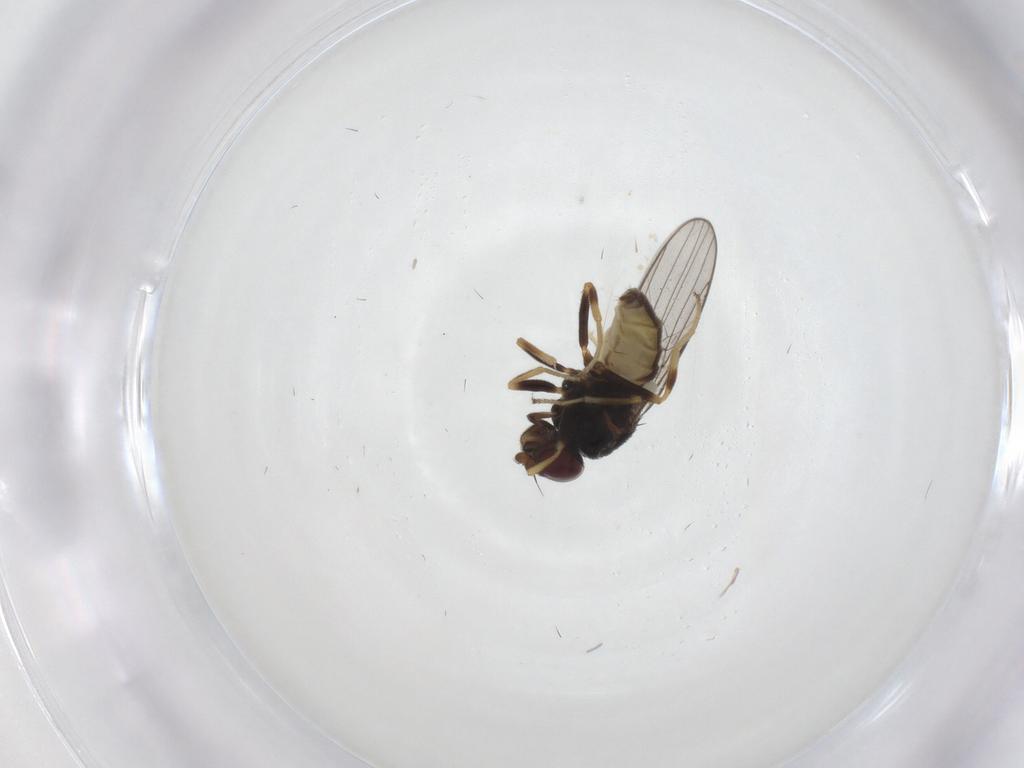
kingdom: Animalia
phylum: Arthropoda
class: Insecta
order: Diptera
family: Chloropidae
